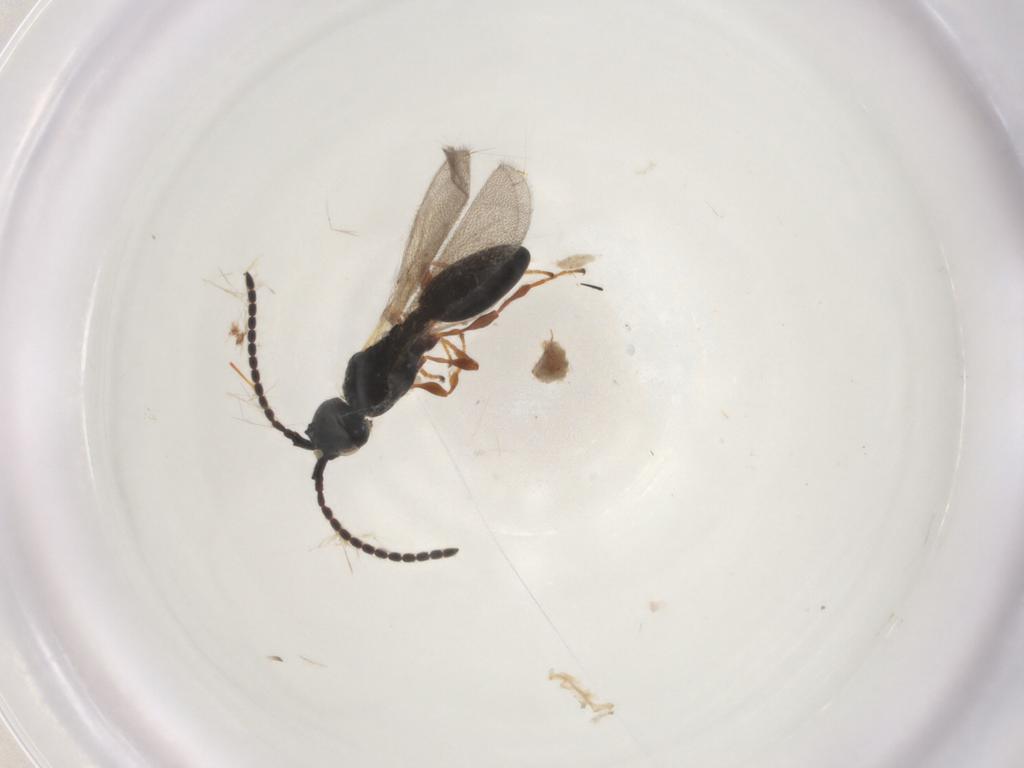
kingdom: Animalia
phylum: Arthropoda
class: Insecta
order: Hymenoptera
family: Diapriidae
